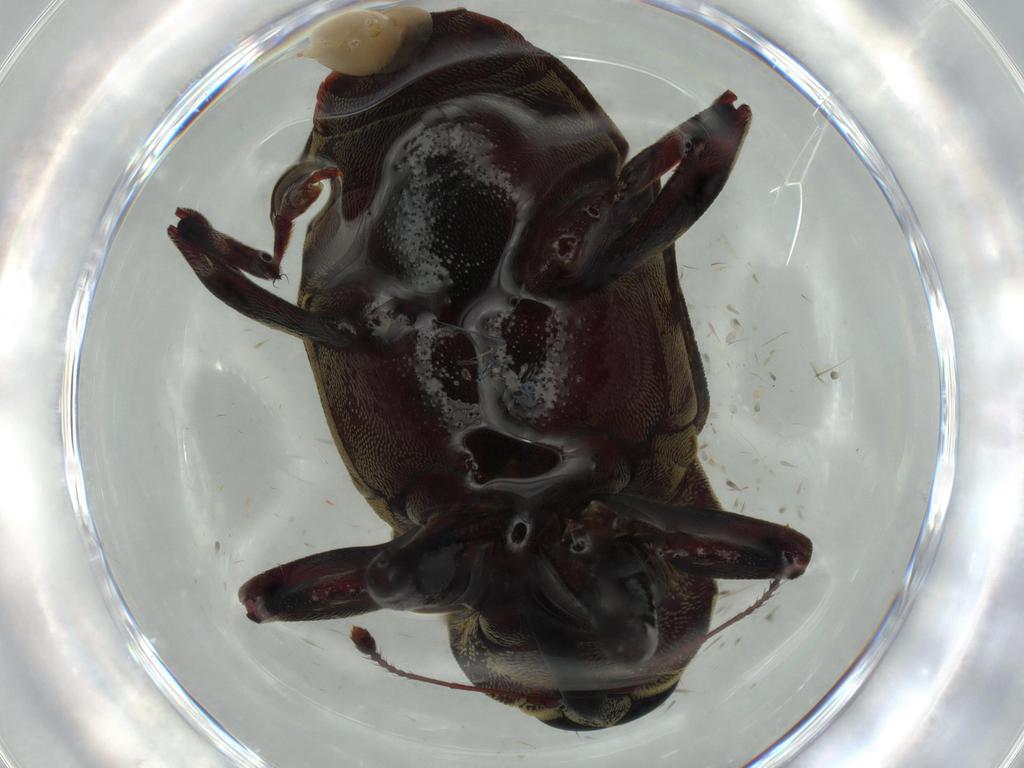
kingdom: Animalia
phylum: Arthropoda
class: Insecta
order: Coleoptera
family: Curculionidae
